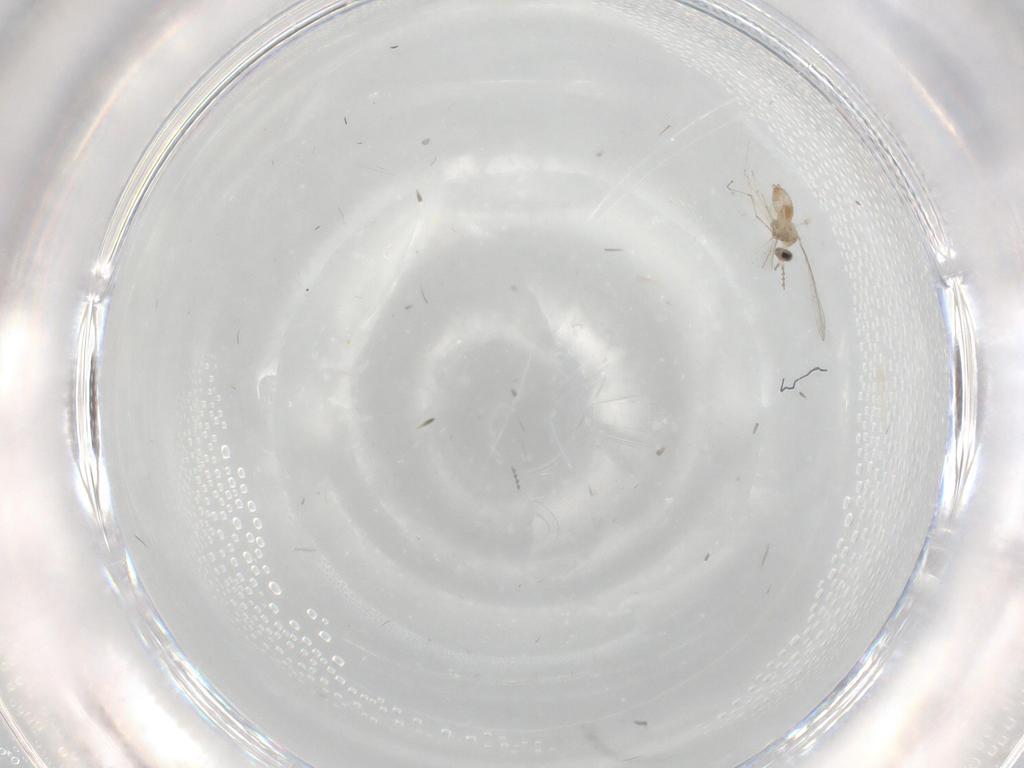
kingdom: Animalia
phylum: Arthropoda
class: Insecta
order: Diptera
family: Cecidomyiidae
